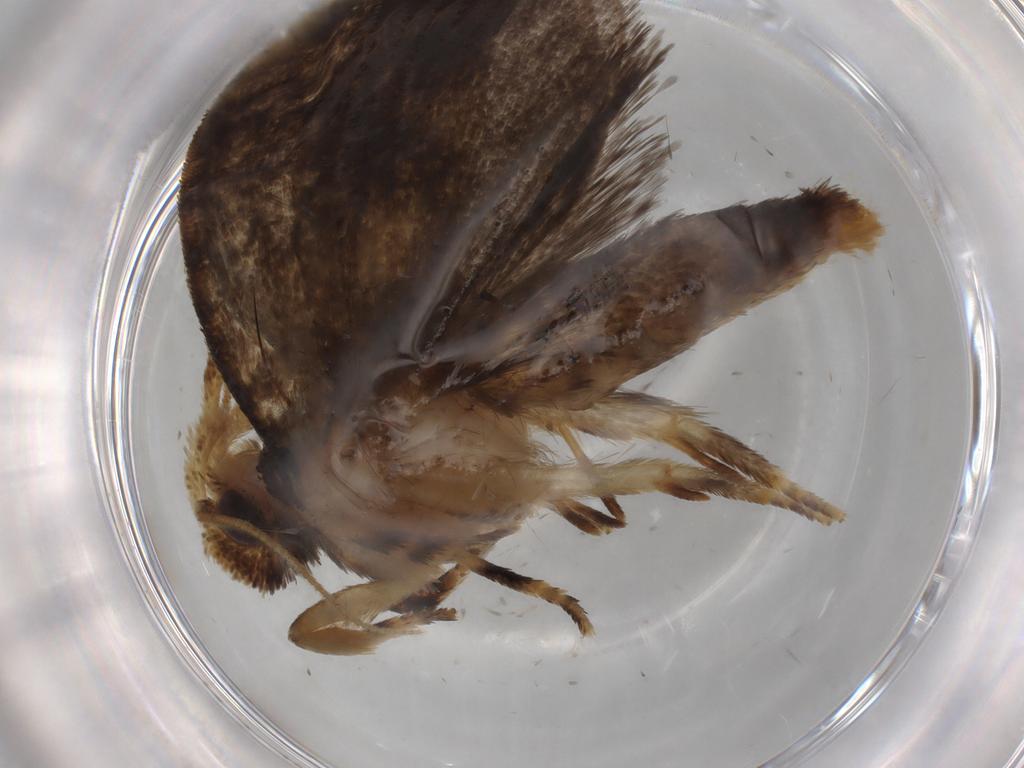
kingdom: Animalia
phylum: Arthropoda
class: Insecta
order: Lepidoptera
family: Tineidae
